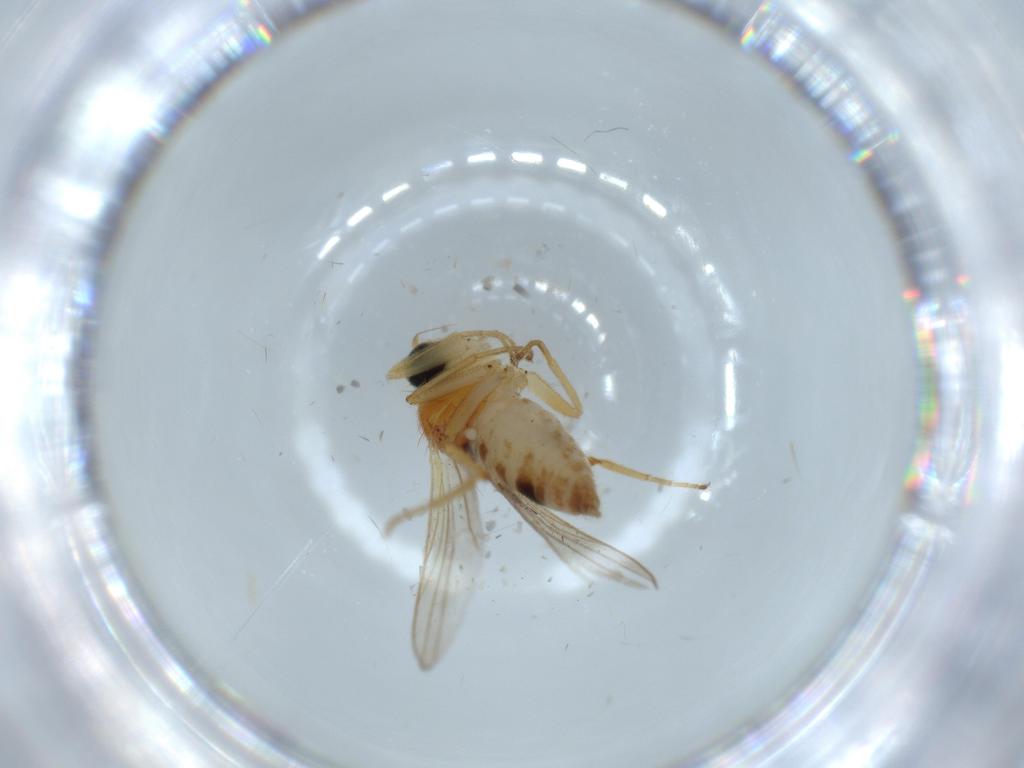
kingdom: Animalia
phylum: Arthropoda
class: Insecta
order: Diptera
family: Hybotidae
